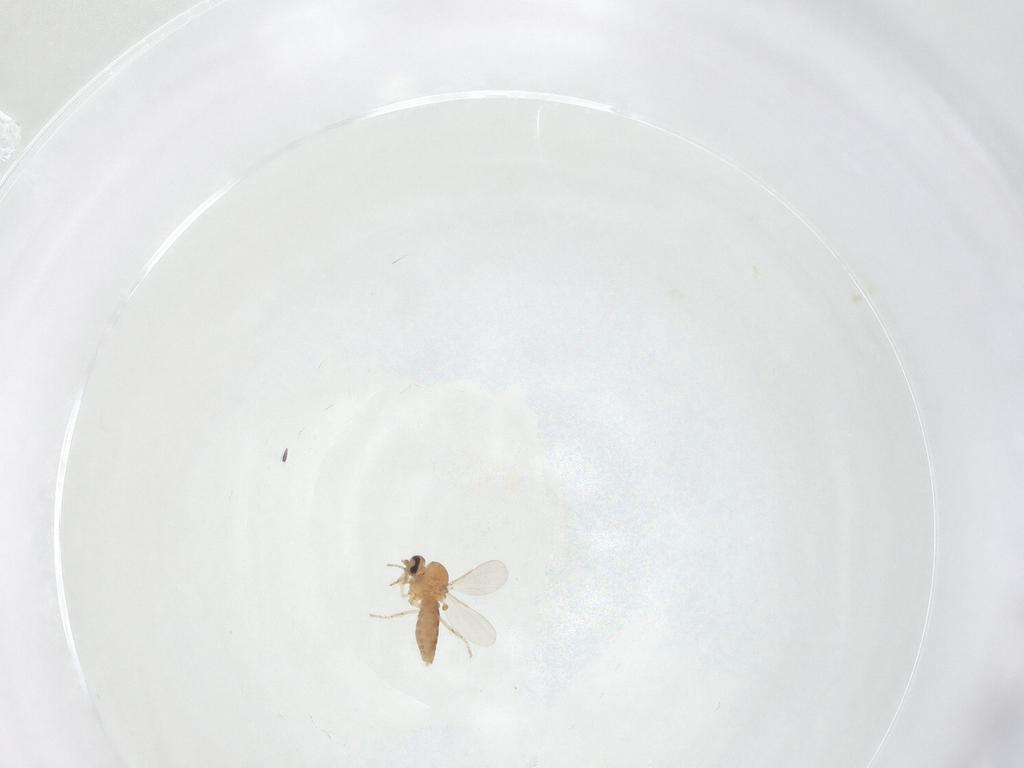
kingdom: Animalia
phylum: Arthropoda
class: Insecta
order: Diptera
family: Ceratopogonidae
